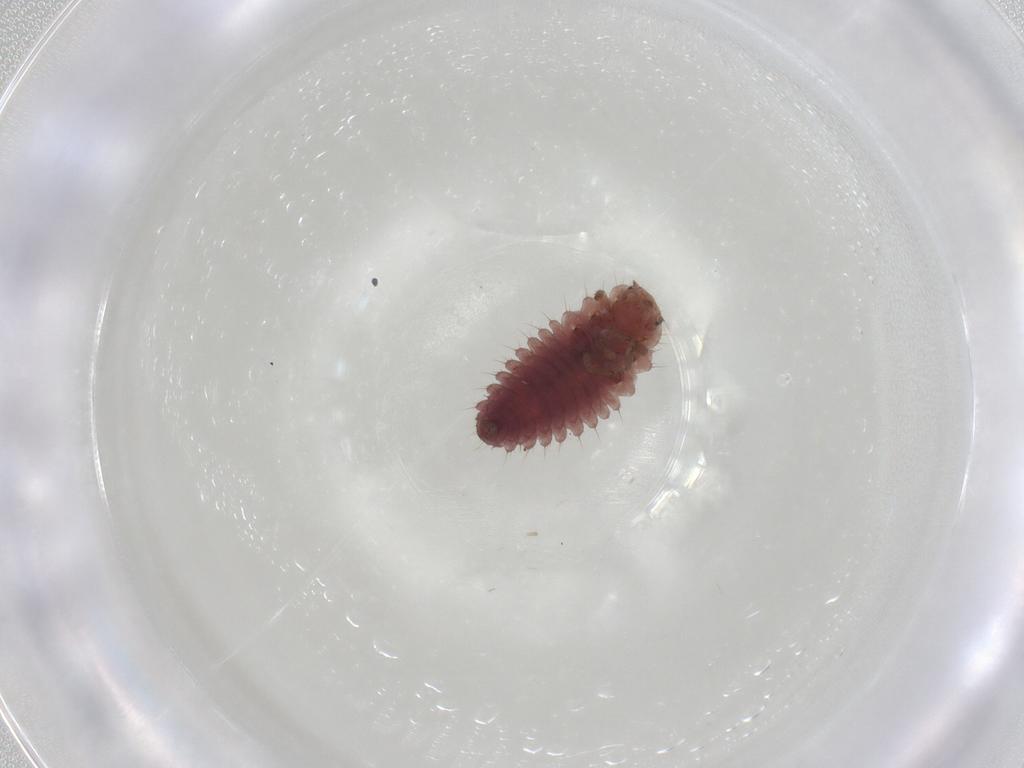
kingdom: Animalia
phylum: Arthropoda
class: Insecta
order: Coleoptera
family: Coccinellidae
